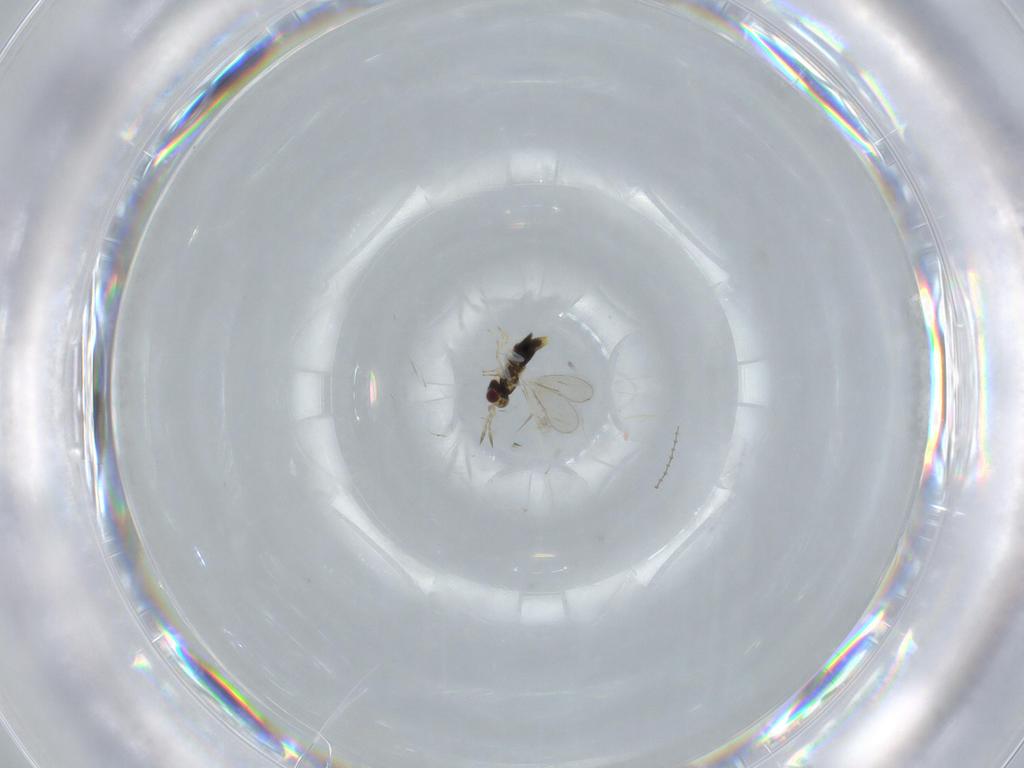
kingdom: Animalia
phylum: Arthropoda
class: Insecta
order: Hymenoptera
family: Aphelinidae
